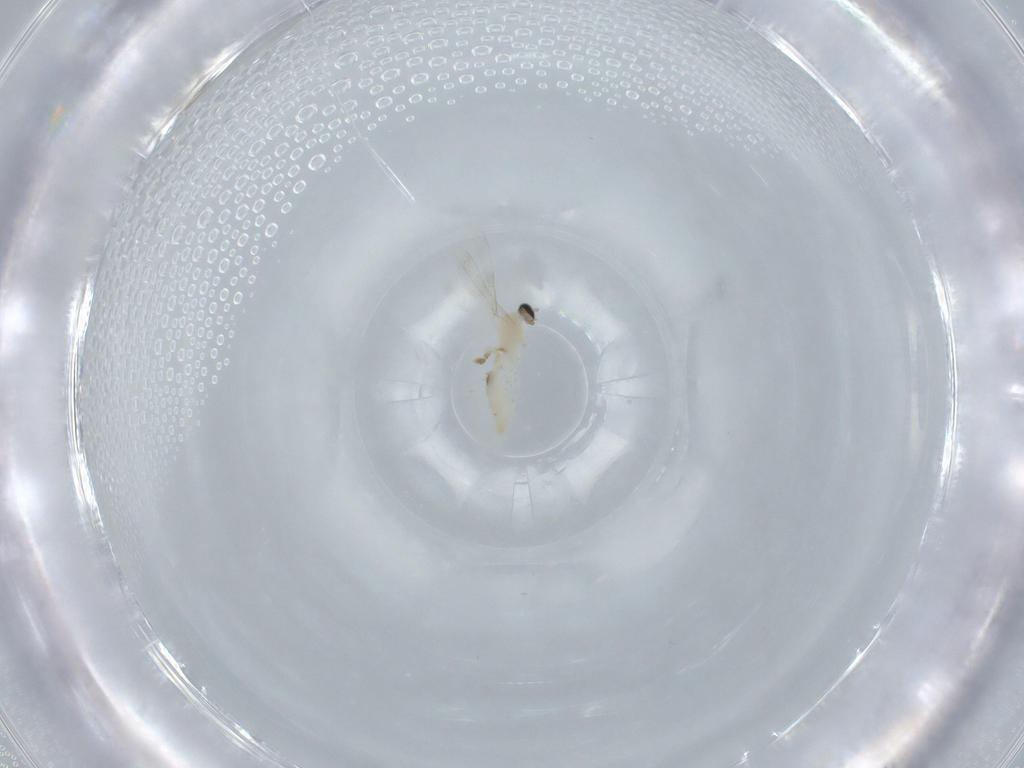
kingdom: Animalia
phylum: Arthropoda
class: Insecta
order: Diptera
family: Cecidomyiidae
